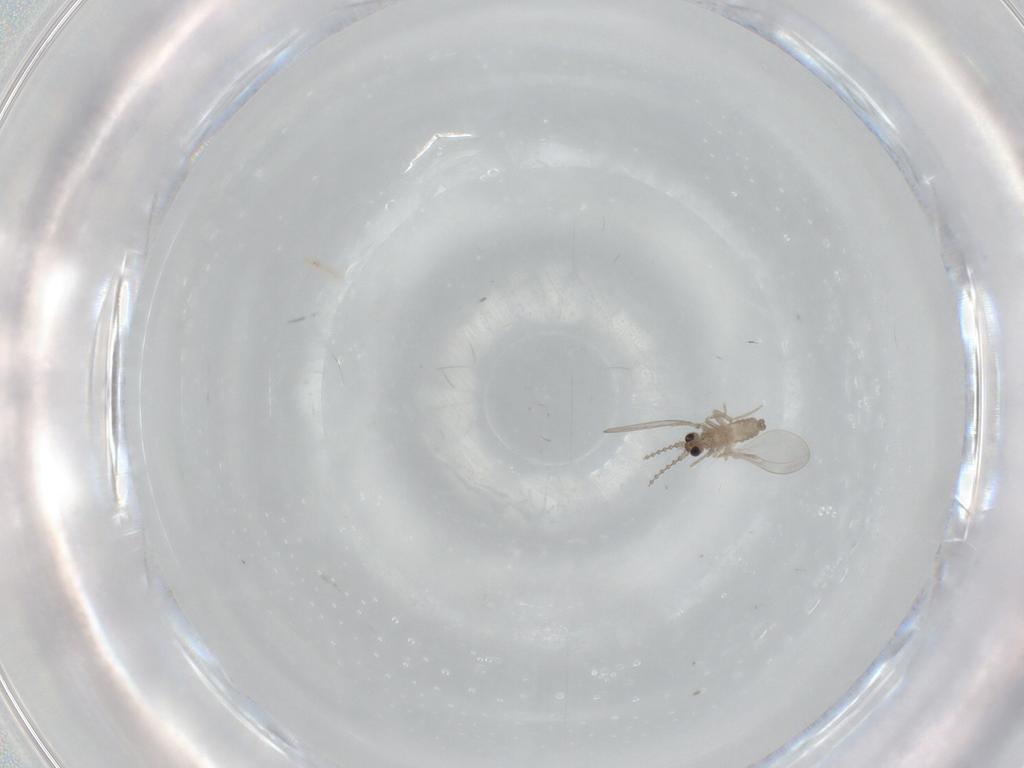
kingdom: Animalia
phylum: Arthropoda
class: Insecta
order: Diptera
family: Cecidomyiidae
